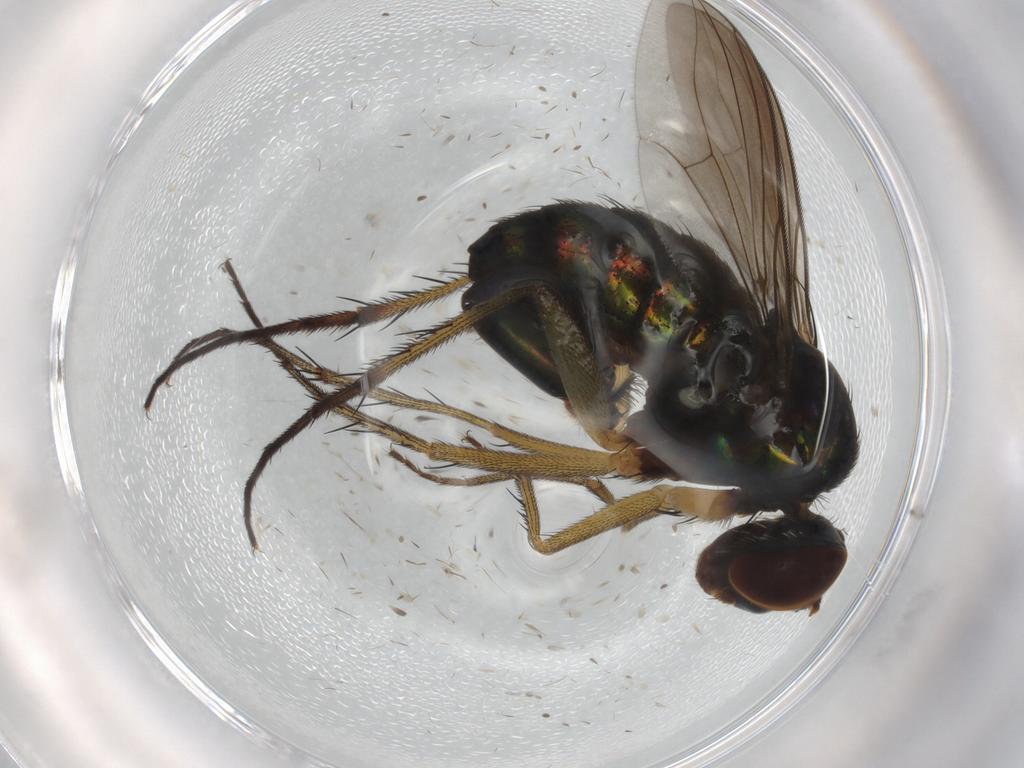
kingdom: Animalia
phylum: Arthropoda
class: Insecta
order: Diptera
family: Dolichopodidae
